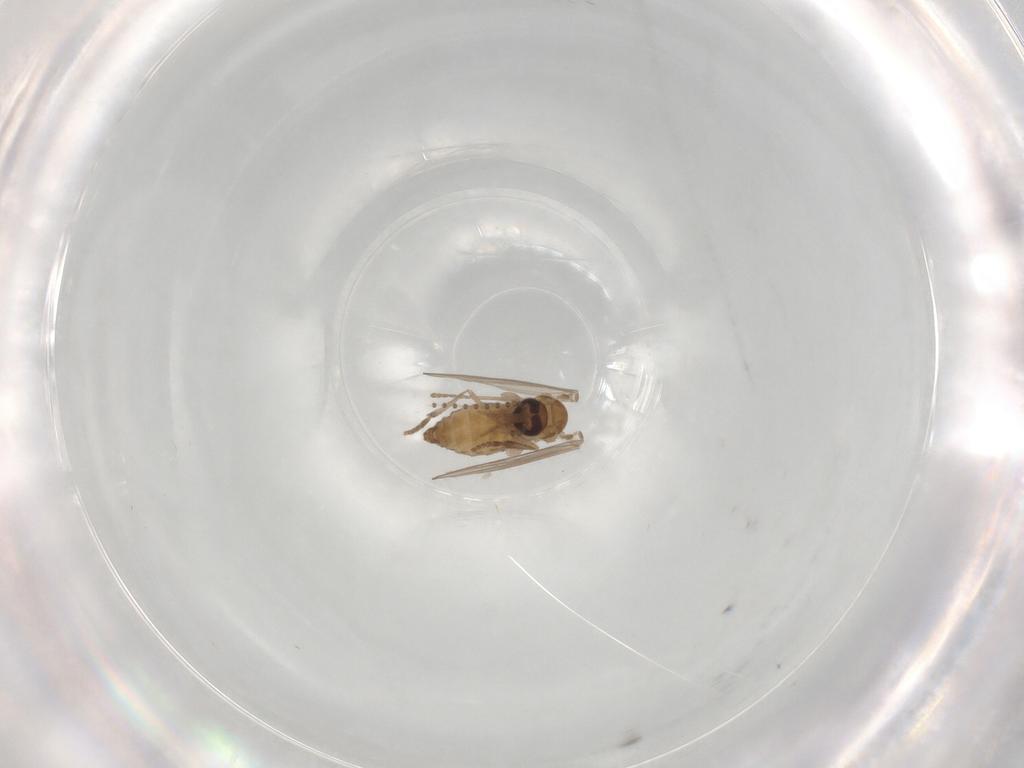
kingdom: Animalia
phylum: Arthropoda
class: Insecta
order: Diptera
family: Psychodidae
